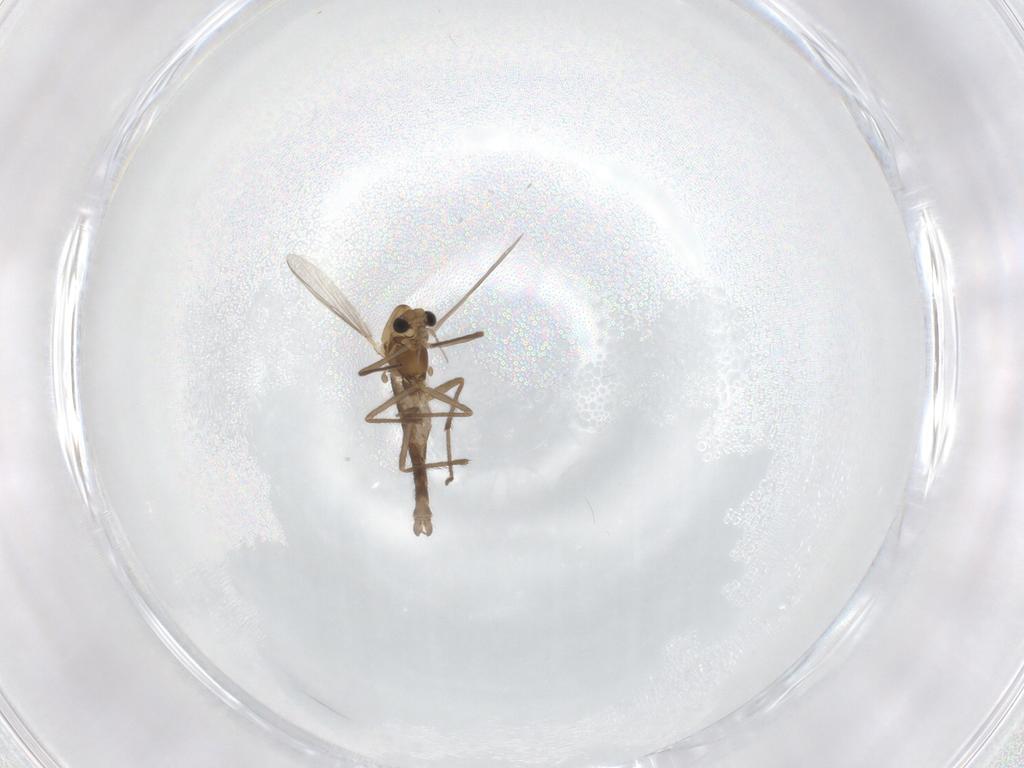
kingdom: Animalia
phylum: Arthropoda
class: Insecta
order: Diptera
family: Chironomidae
